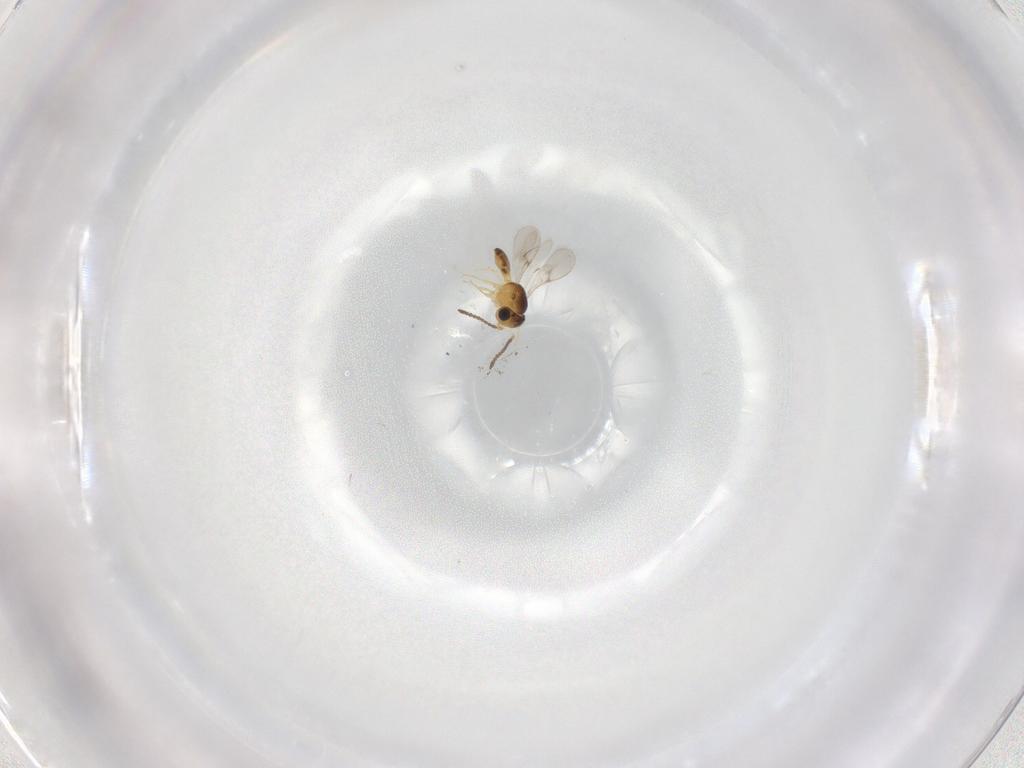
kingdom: Animalia
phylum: Arthropoda
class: Insecta
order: Hymenoptera
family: Scelionidae
